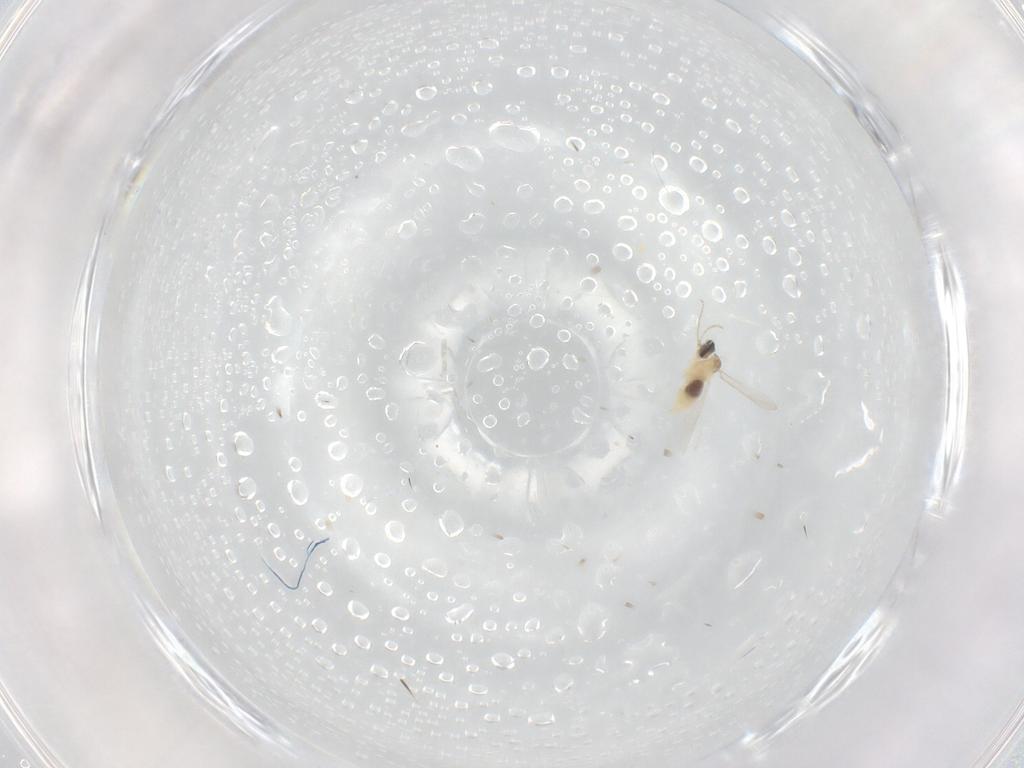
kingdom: Animalia
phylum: Arthropoda
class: Insecta
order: Diptera
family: Cecidomyiidae
